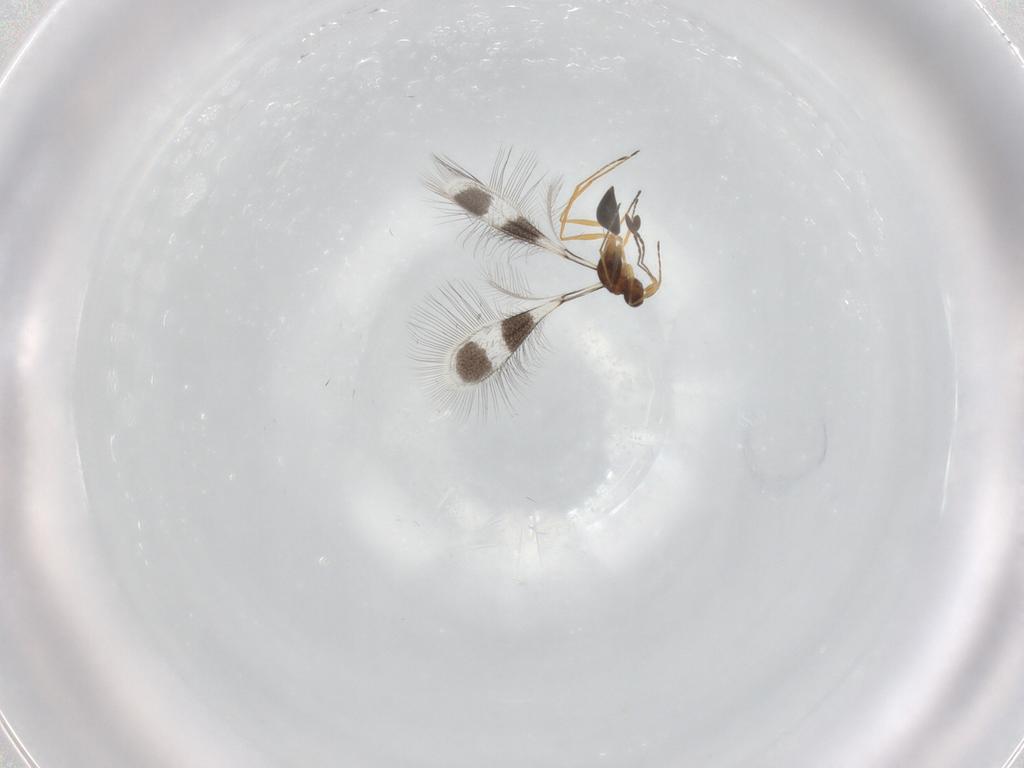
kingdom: Animalia
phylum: Arthropoda
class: Insecta
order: Hymenoptera
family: Mymaridae
